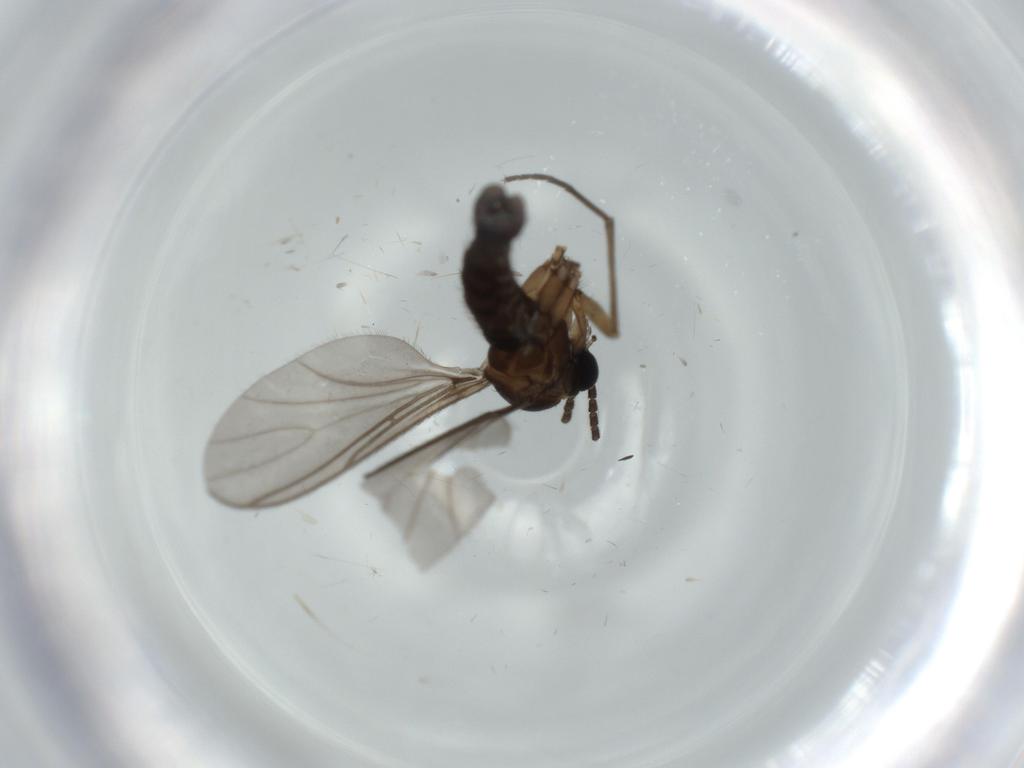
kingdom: Animalia
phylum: Arthropoda
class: Insecta
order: Diptera
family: Sciaridae
